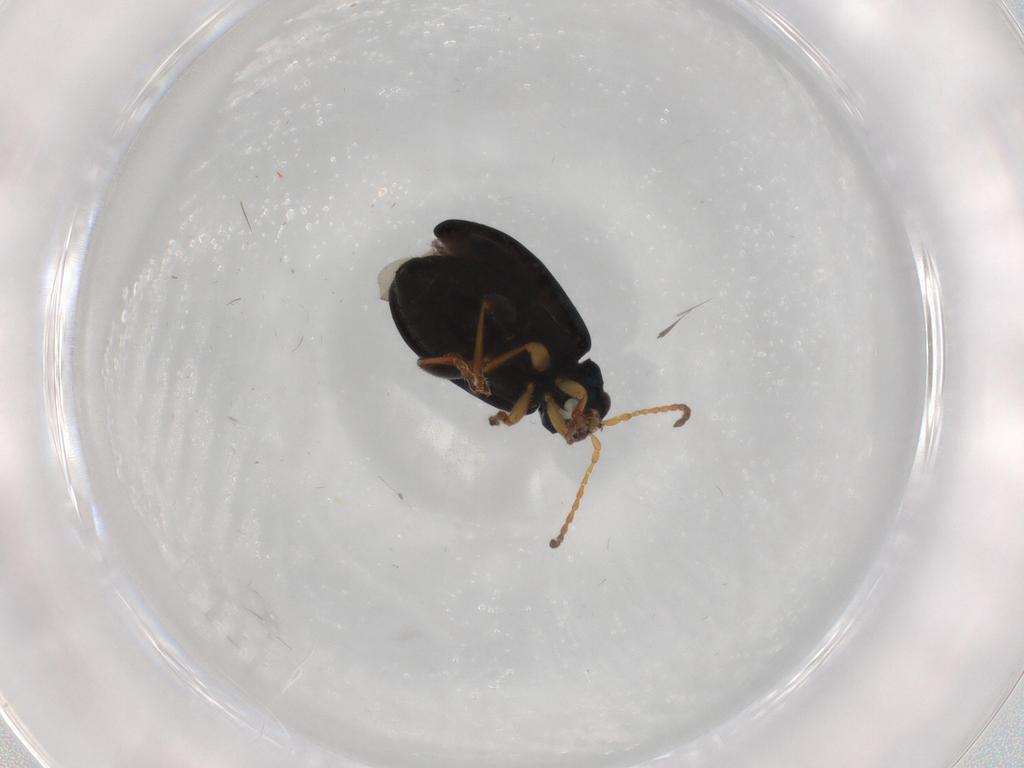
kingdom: Animalia
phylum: Arthropoda
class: Insecta
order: Coleoptera
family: Chrysomelidae
